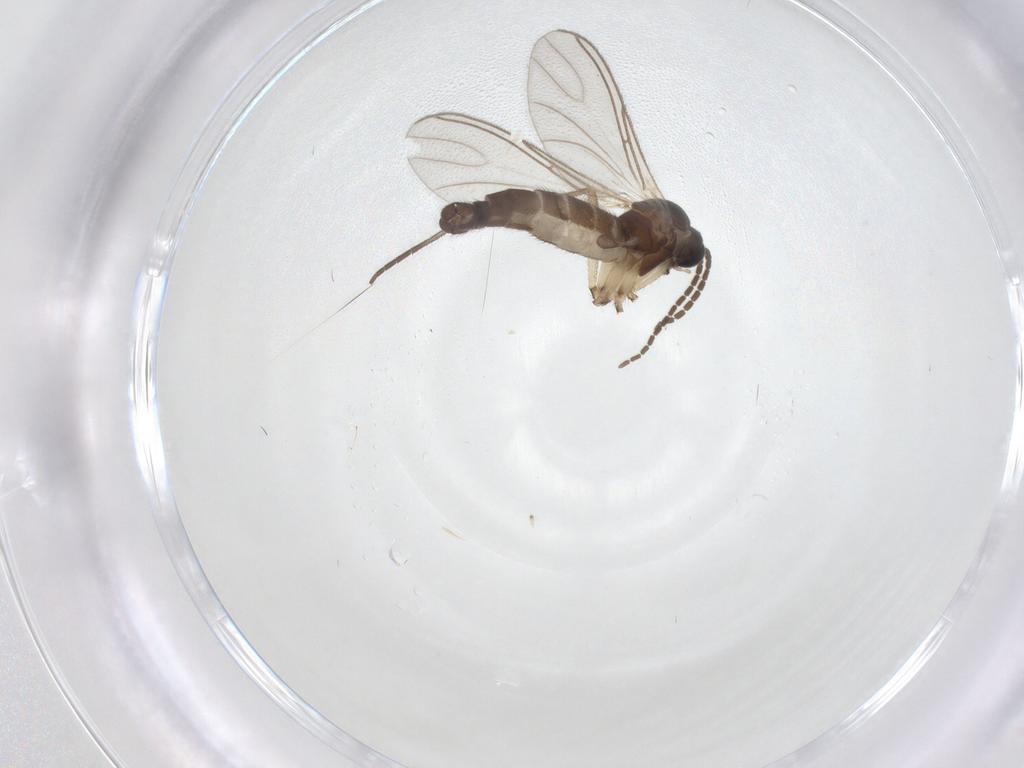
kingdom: Animalia
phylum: Arthropoda
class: Insecta
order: Diptera
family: Sciaridae
